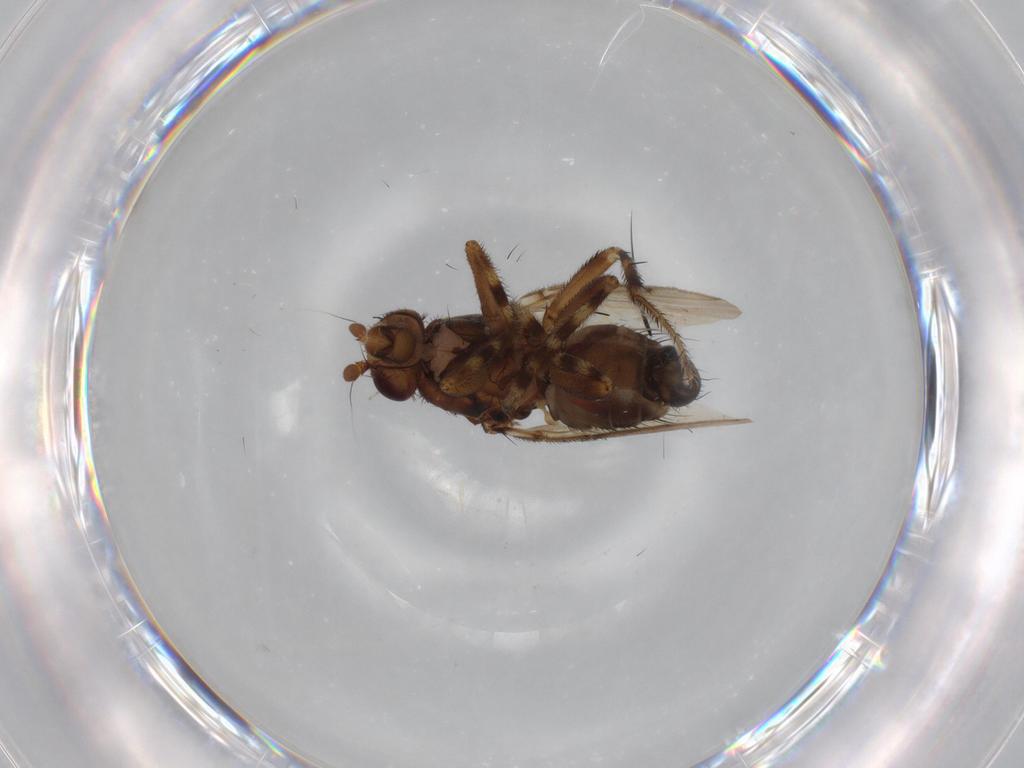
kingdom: Animalia
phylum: Arthropoda
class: Insecta
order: Diptera
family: Sphaeroceridae
